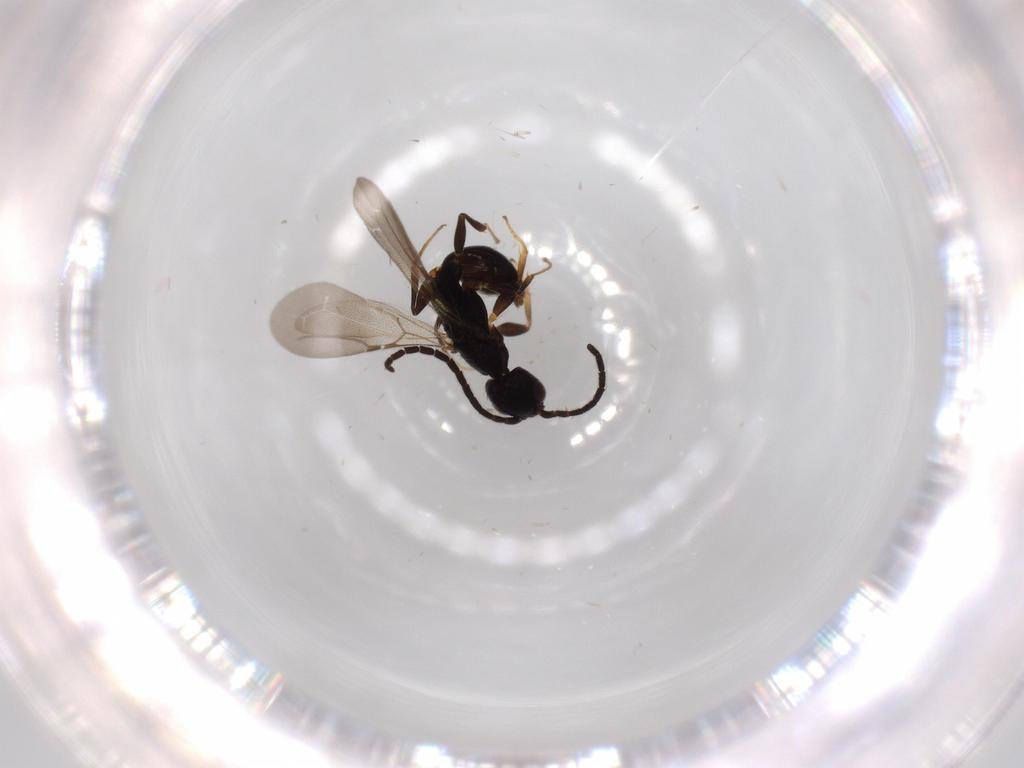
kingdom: Animalia
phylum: Arthropoda
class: Insecta
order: Hymenoptera
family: Bethylidae
